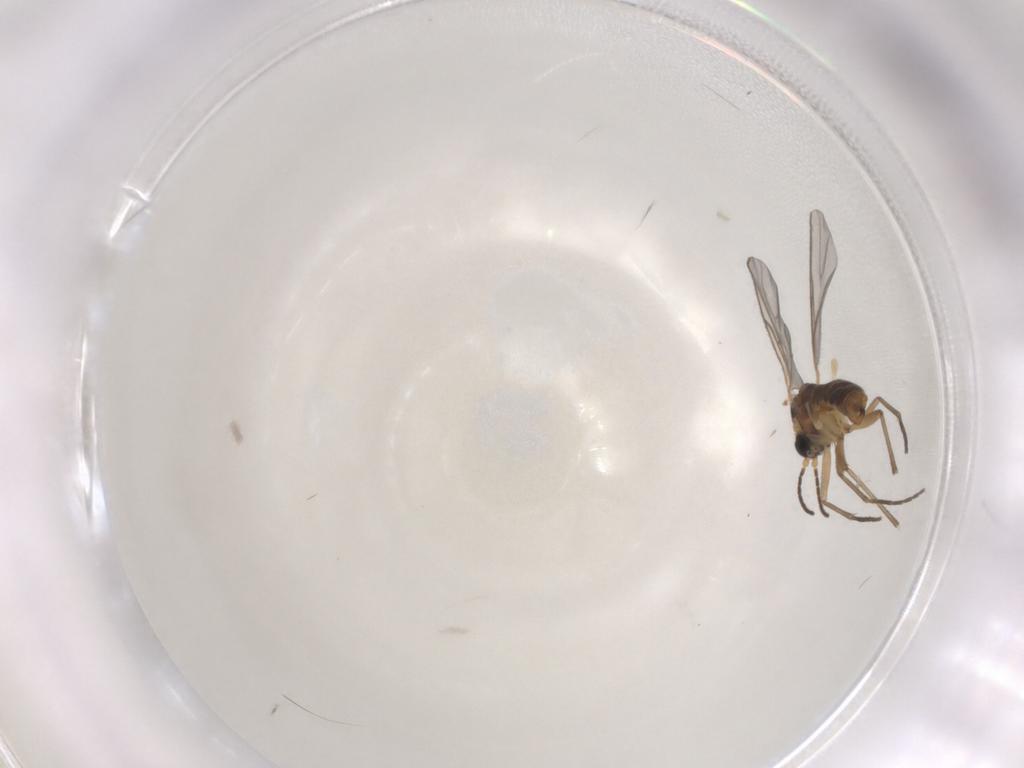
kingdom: Animalia
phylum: Arthropoda
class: Insecta
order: Diptera
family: Sciaridae
